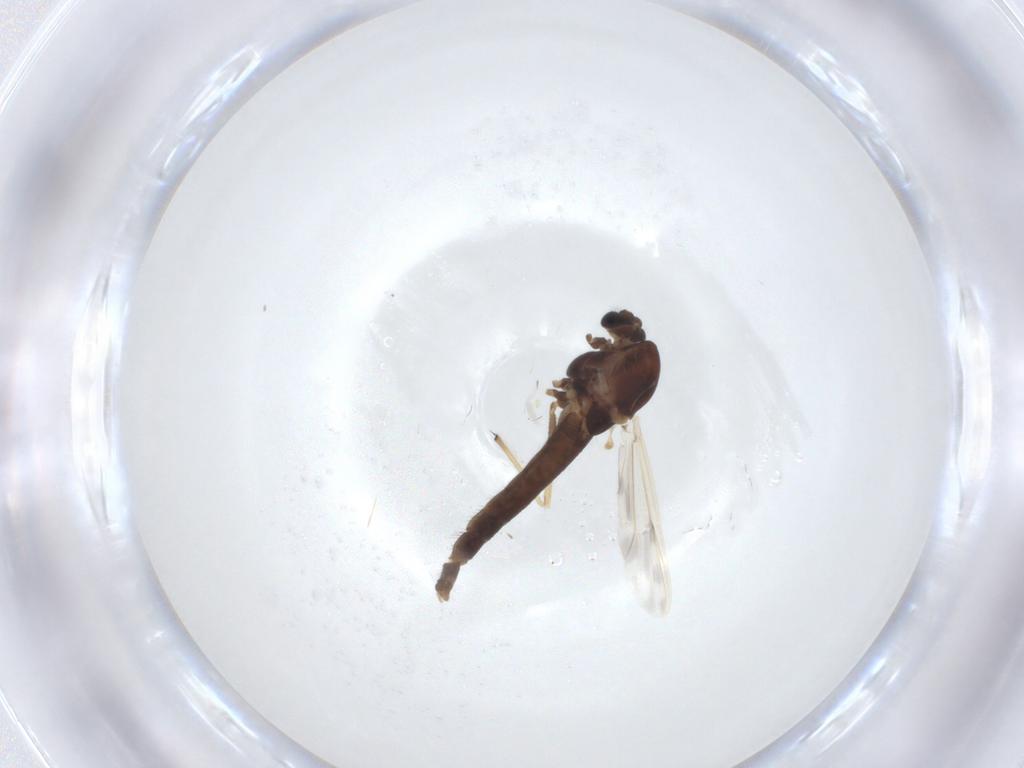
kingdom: Animalia
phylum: Arthropoda
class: Insecta
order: Diptera
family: Chironomidae
